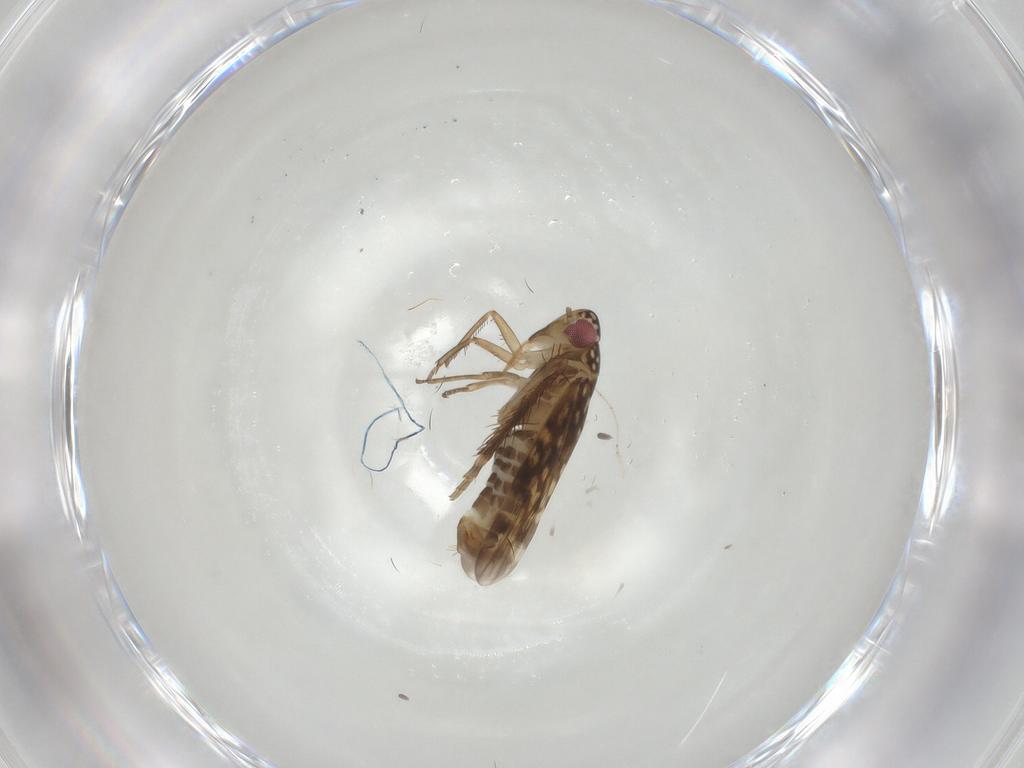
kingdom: Animalia
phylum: Arthropoda
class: Insecta
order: Hemiptera
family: Cicadellidae
